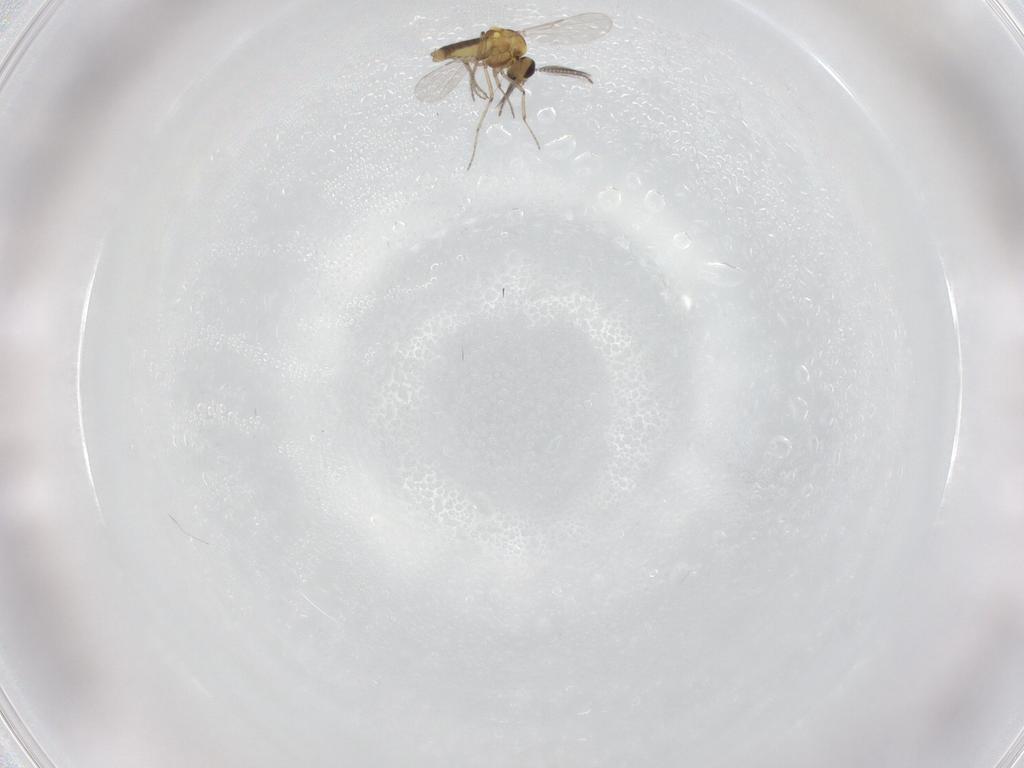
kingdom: Animalia
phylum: Arthropoda
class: Insecta
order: Diptera
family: Ceratopogonidae
